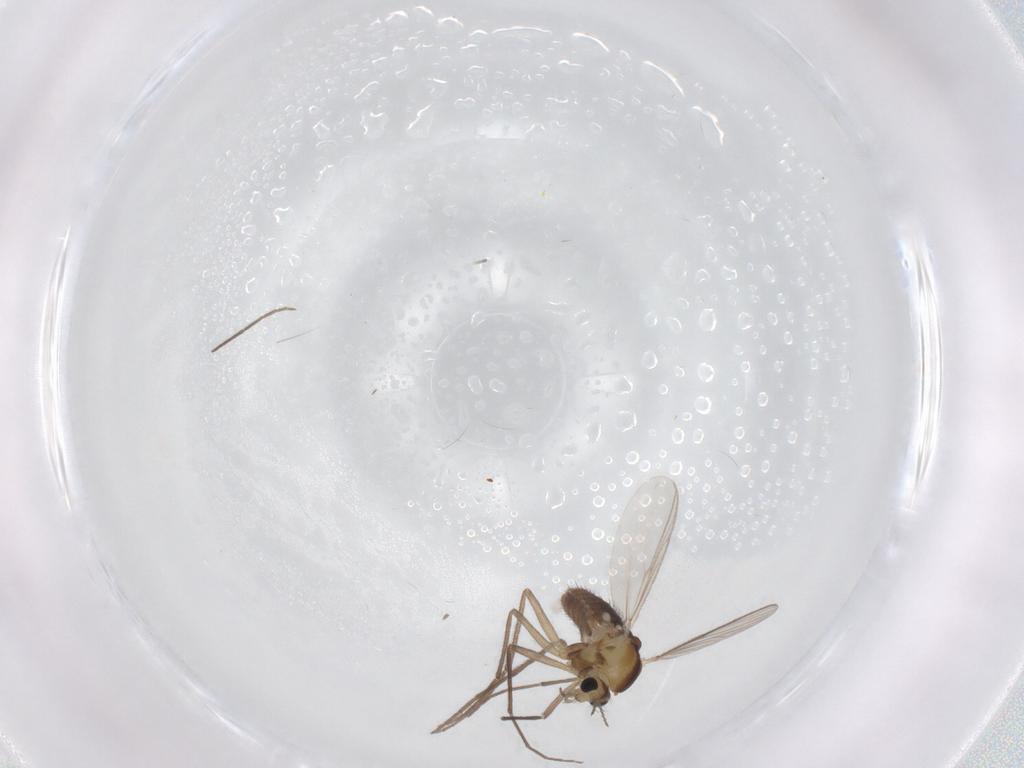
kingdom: Animalia
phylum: Arthropoda
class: Insecta
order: Diptera
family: Chironomidae
